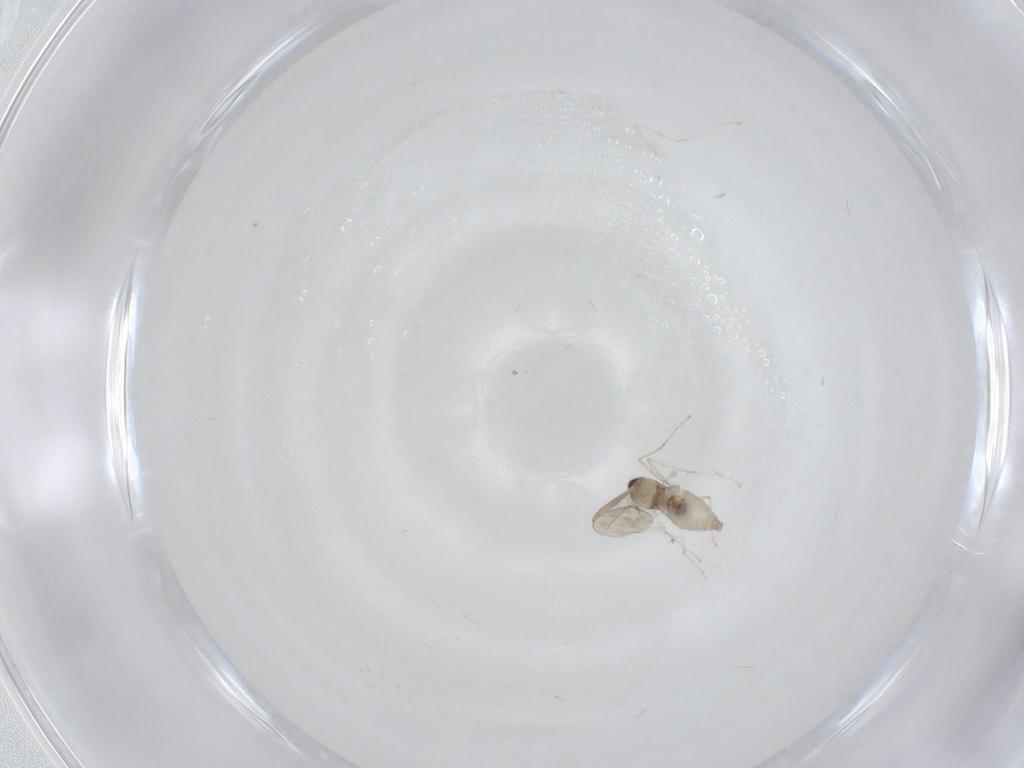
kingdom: Animalia
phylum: Arthropoda
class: Insecta
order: Diptera
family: Cecidomyiidae
